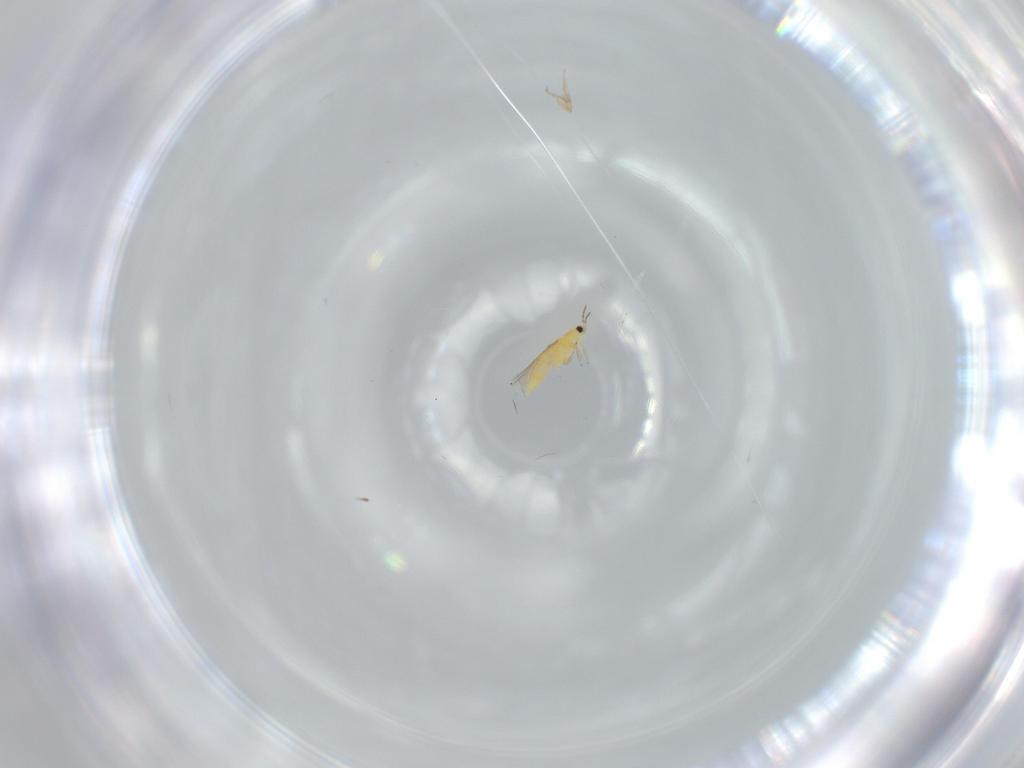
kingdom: Animalia
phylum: Arthropoda
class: Insecta
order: Thysanoptera
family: Thripidae
